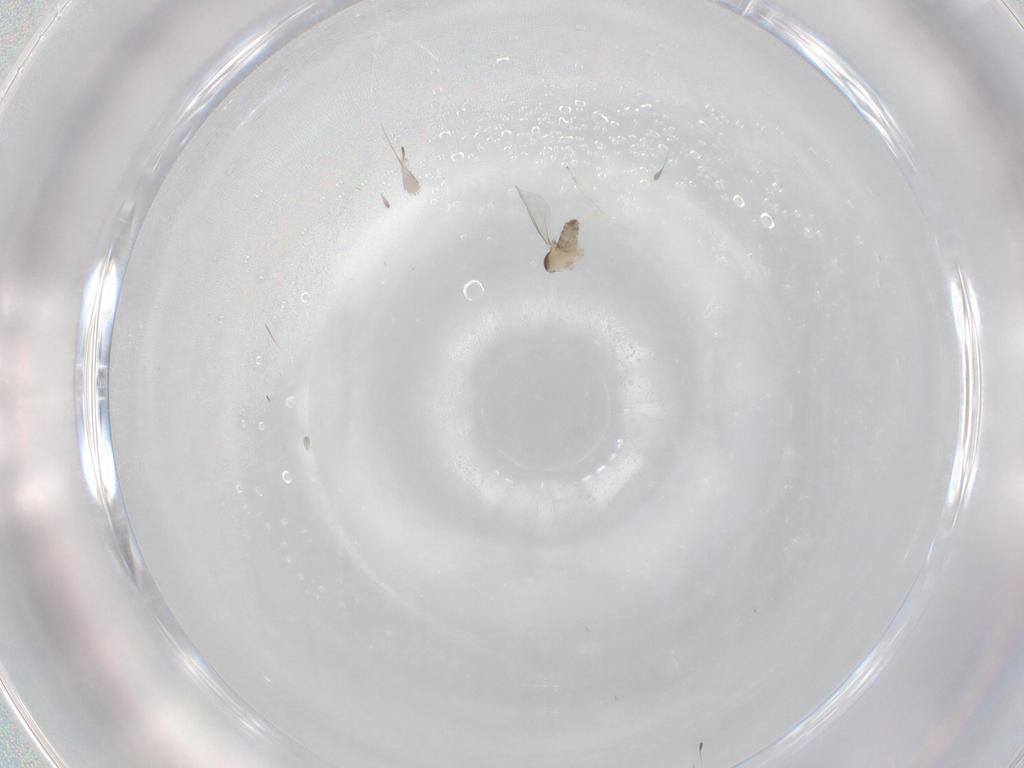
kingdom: Animalia
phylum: Arthropoda
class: Insecta
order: Diptera
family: Cecidomyiidae
